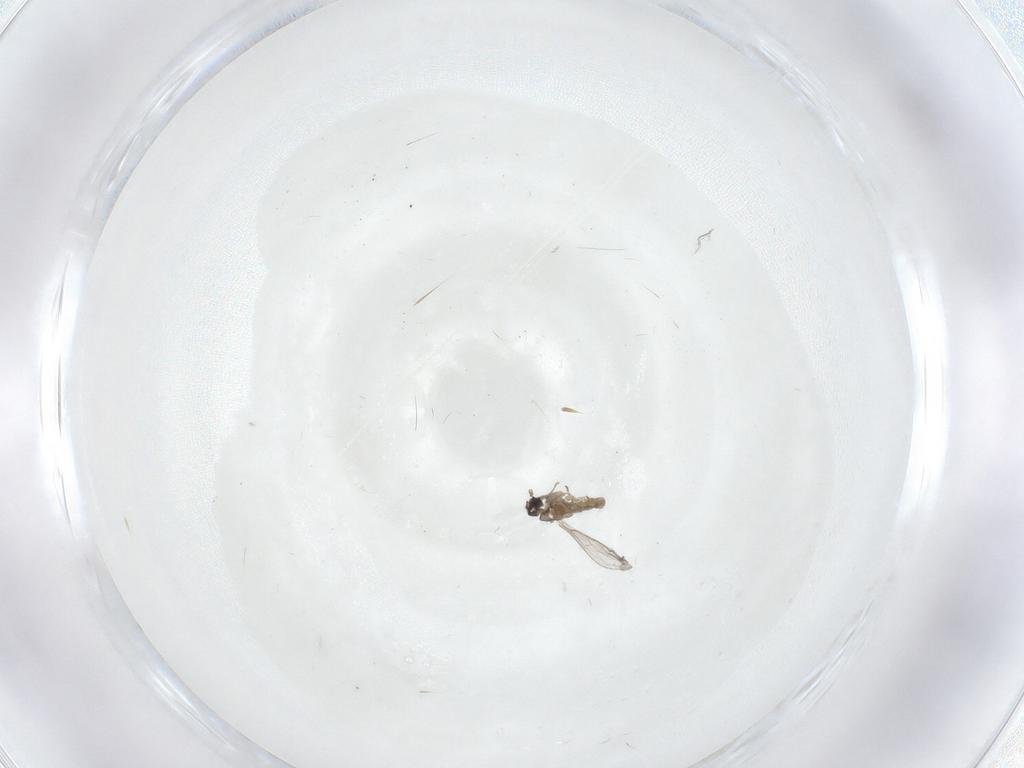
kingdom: Animalia
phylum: Arthropoda
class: Insecta
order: Diptera
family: Cecidomyiidae
